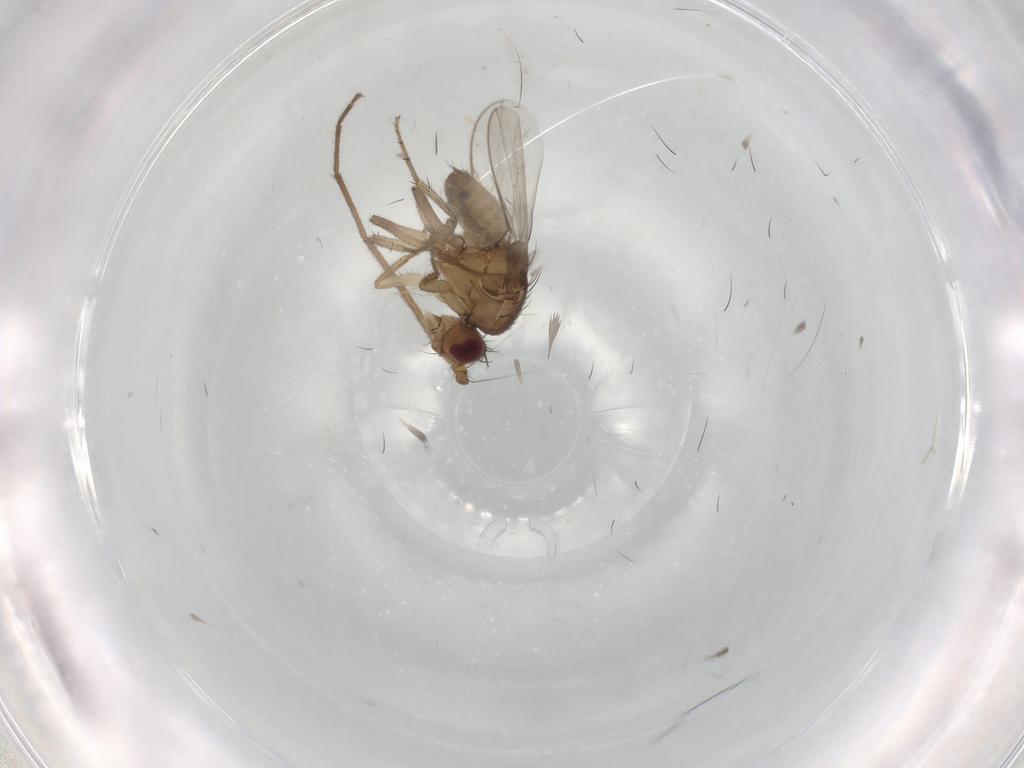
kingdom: Animalia
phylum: Arthropoda
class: Insecta
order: Diptera
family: Chironomidae
